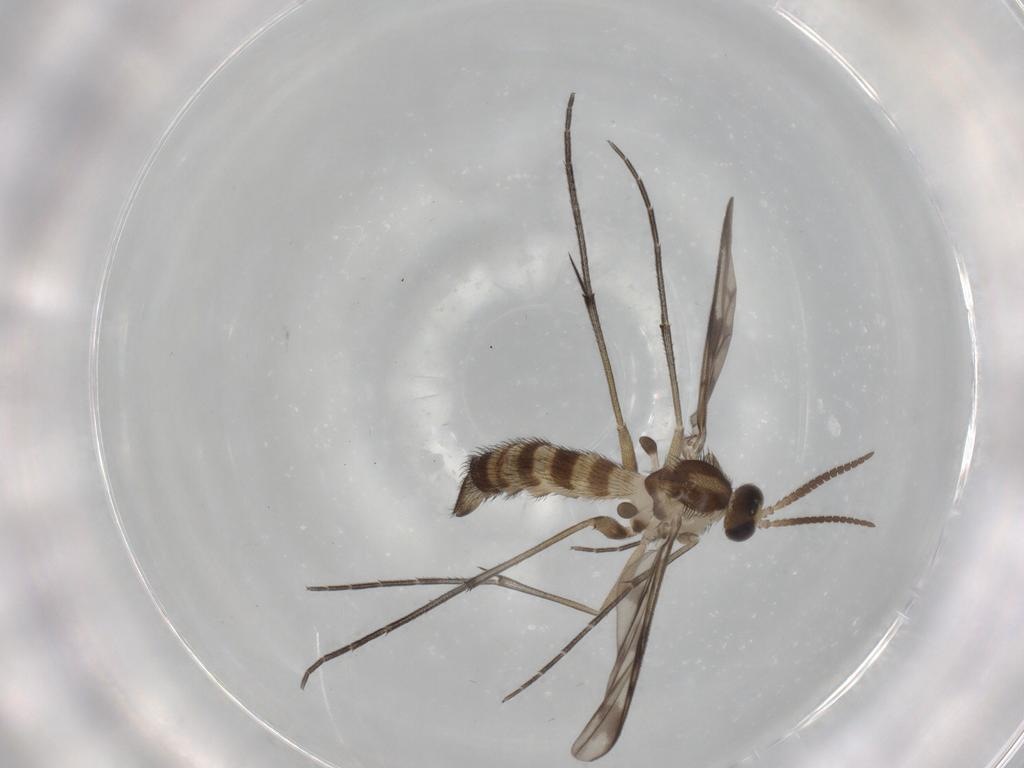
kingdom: Animalia
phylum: Arthropoda
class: Insecta
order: Diptera
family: Keroplatidae
